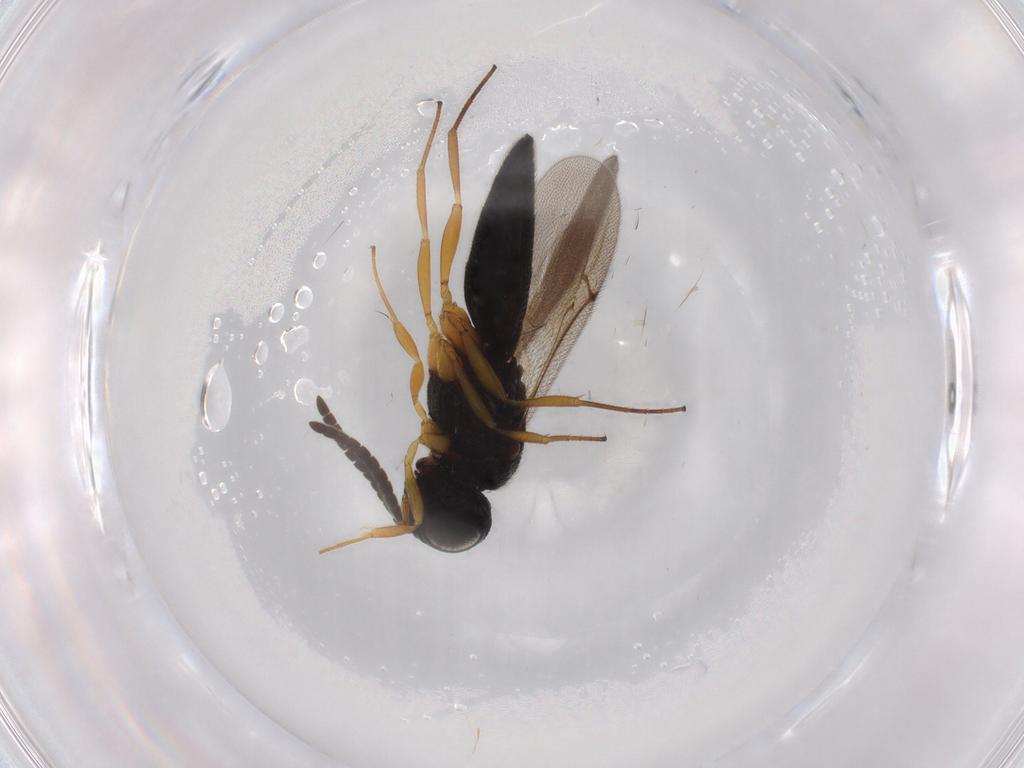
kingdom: Animalia
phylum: Arthropoda
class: Insecta
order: Hymenoptera
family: Scelionidae
